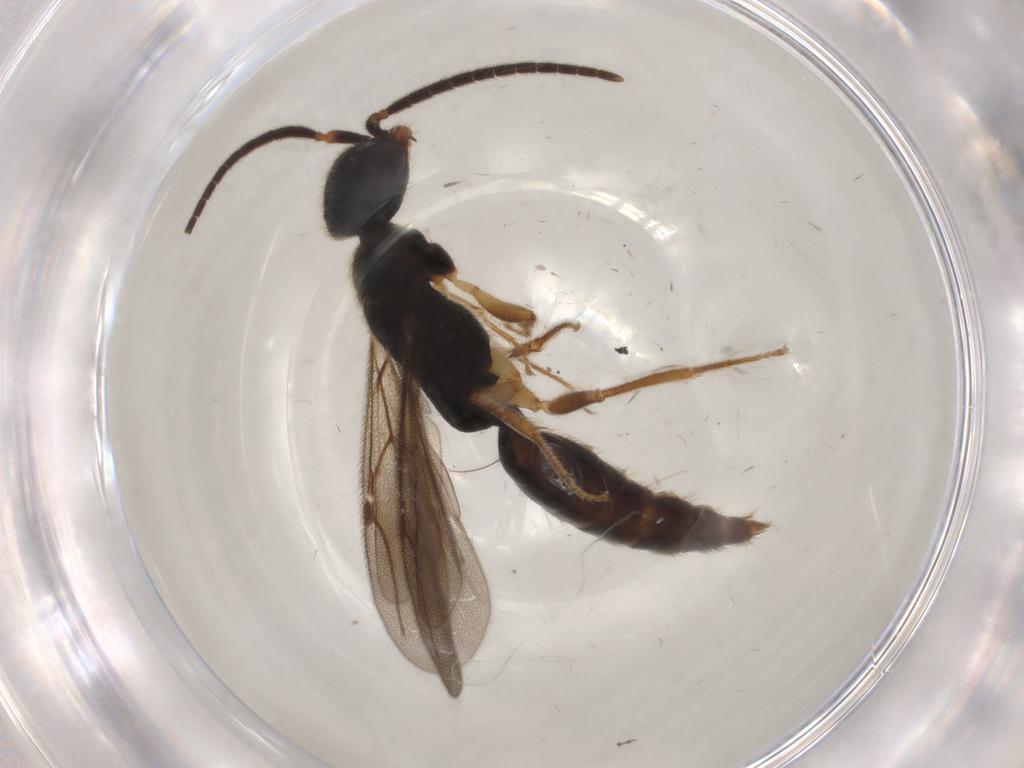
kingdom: Animalia
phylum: Arthropoda
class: Insecta
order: Hymenoptera
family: Bethylidae
